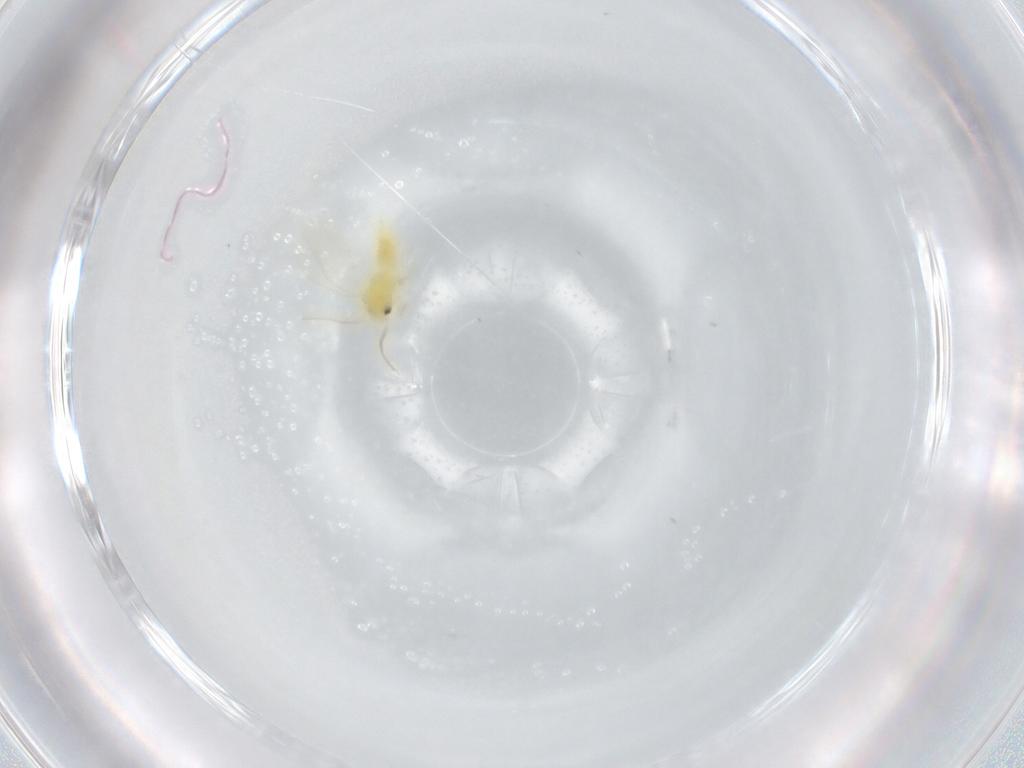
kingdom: Animalia
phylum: Arthropoda
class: Insecta
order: Hemiptera
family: Aleyrodidae
